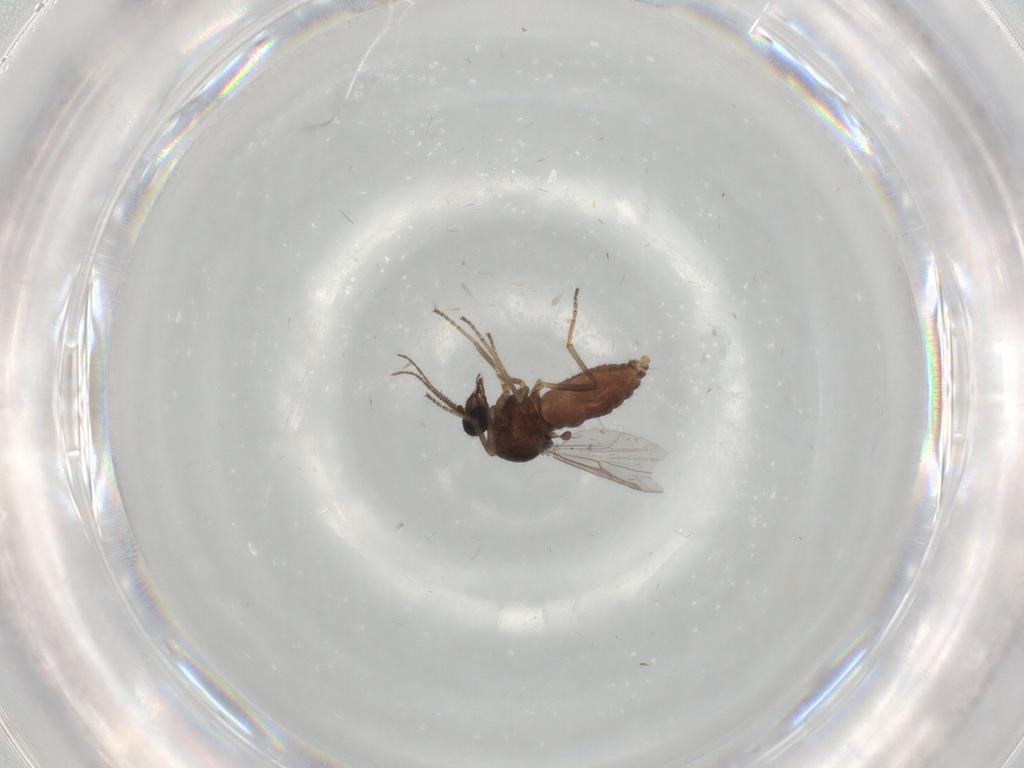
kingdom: Animalia
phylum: Arthropoda
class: Insecta
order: Diptera
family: Ceratopogonidae
